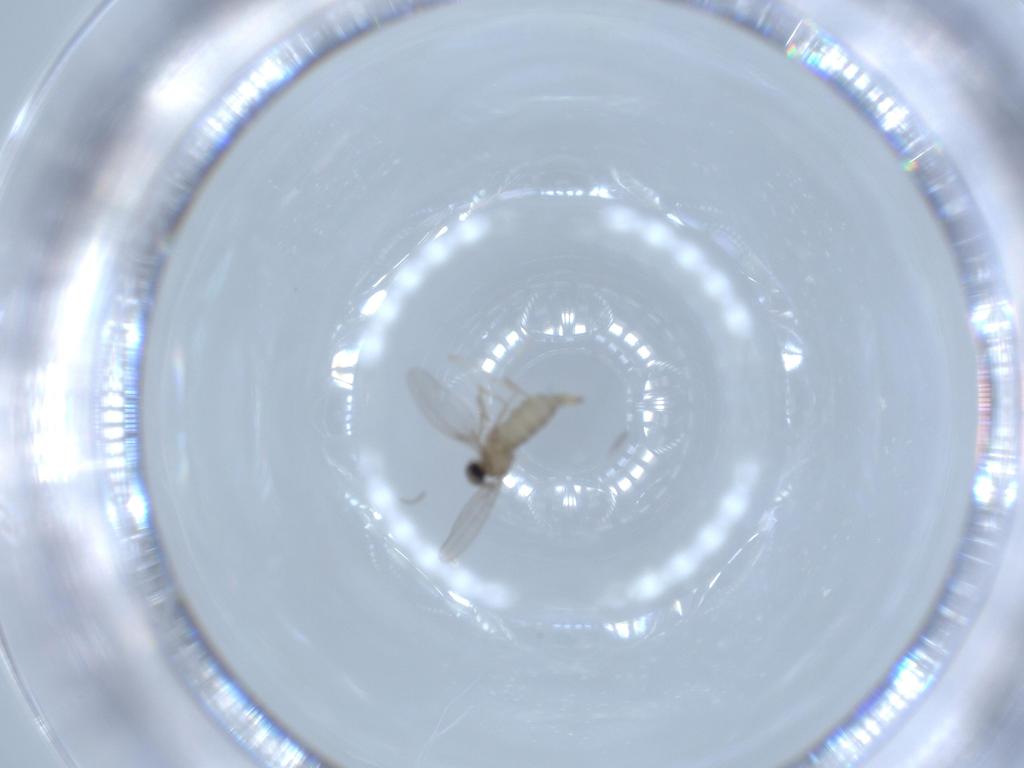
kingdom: Animalia
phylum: Arthropoda
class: Insecta
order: Diptera
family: Cecidomyiidae
